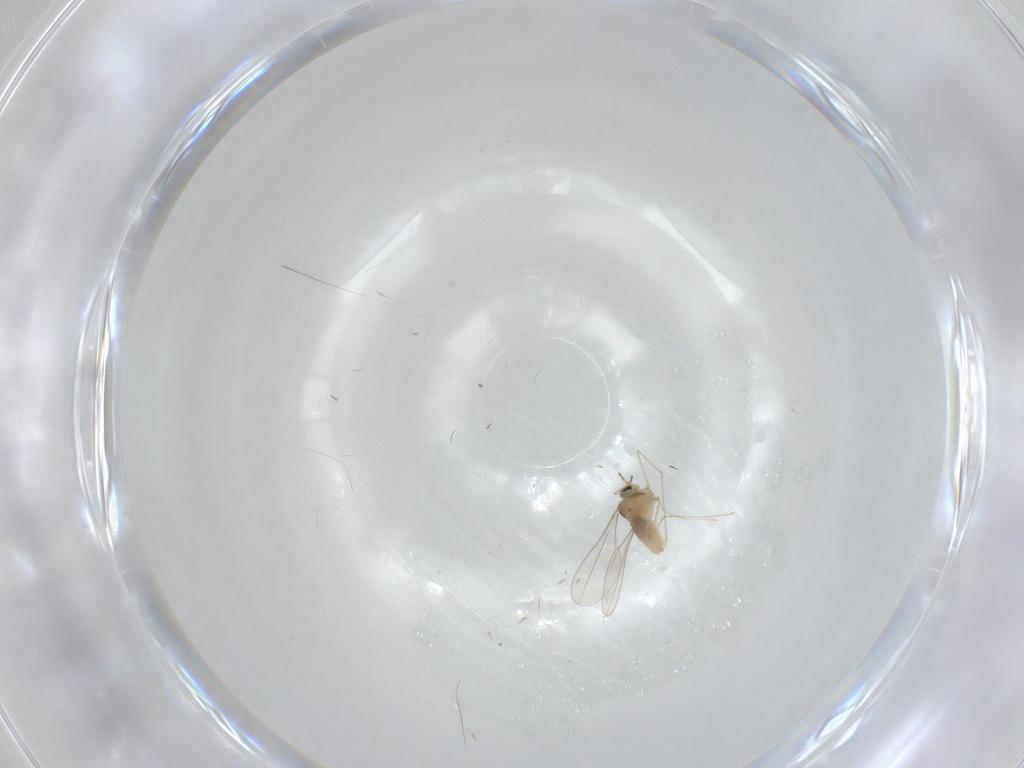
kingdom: Animalia
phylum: Arthropoda
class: Insecta
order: Diptera
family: Cecidomyiidae
